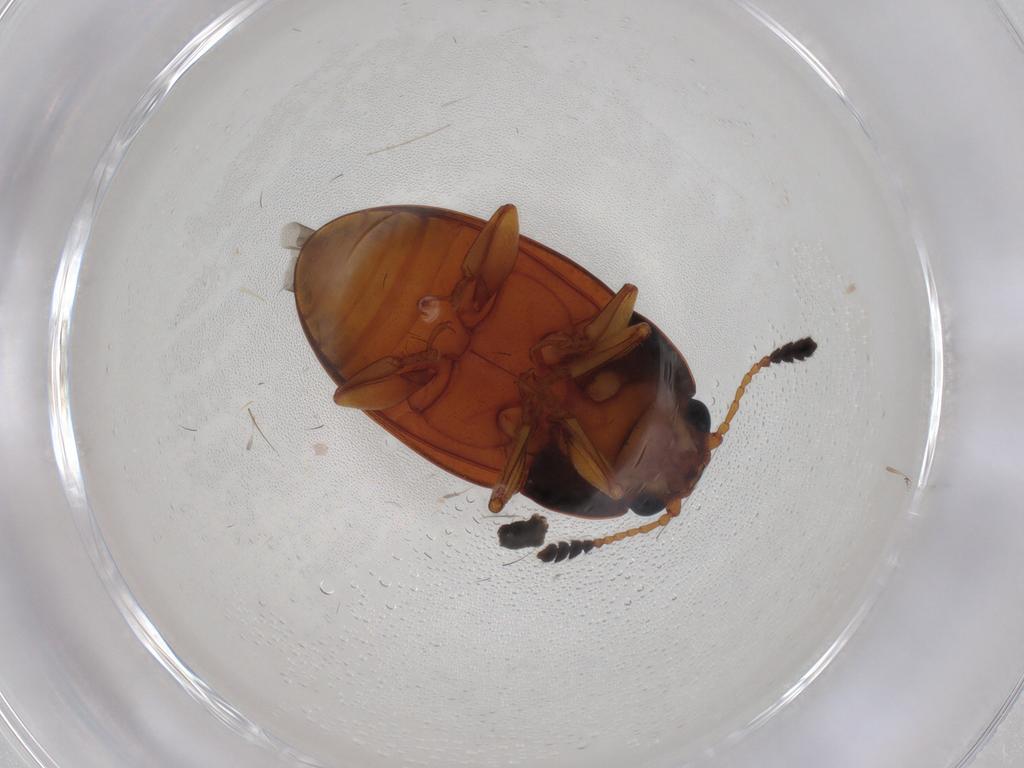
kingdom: Animalia
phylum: Arthropoda
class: Insecta
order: Coleoptera
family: Erotylidae
